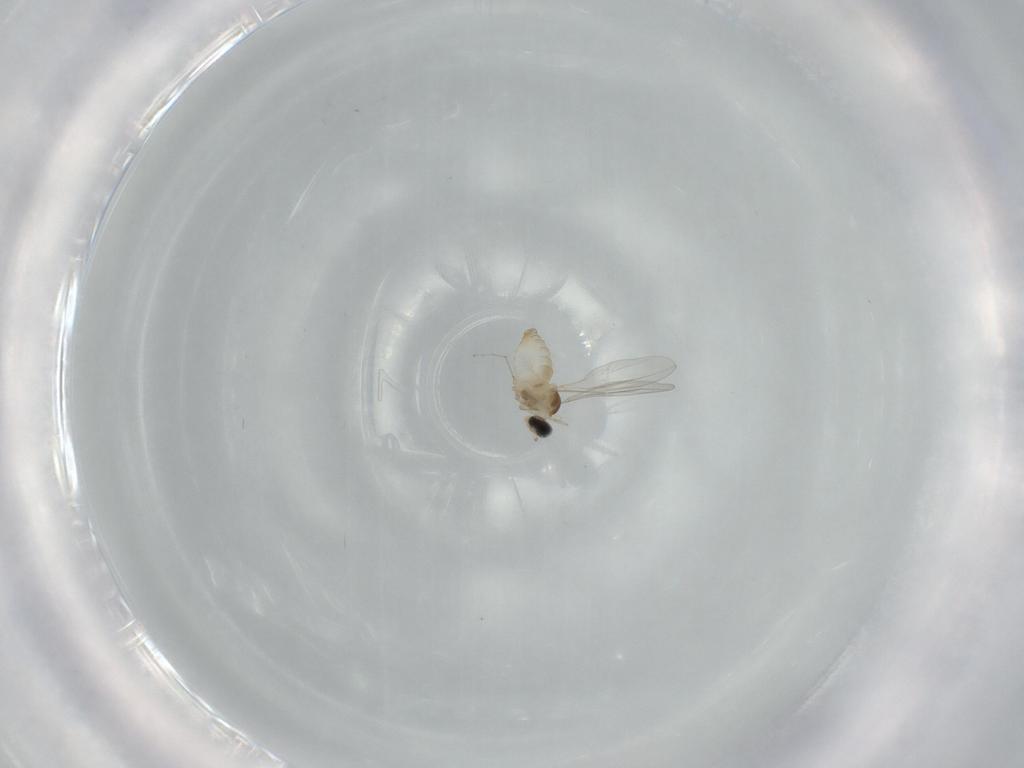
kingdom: Animalia
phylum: Arthropoda
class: Insecta
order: Diptera
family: Cecidomyiidae
